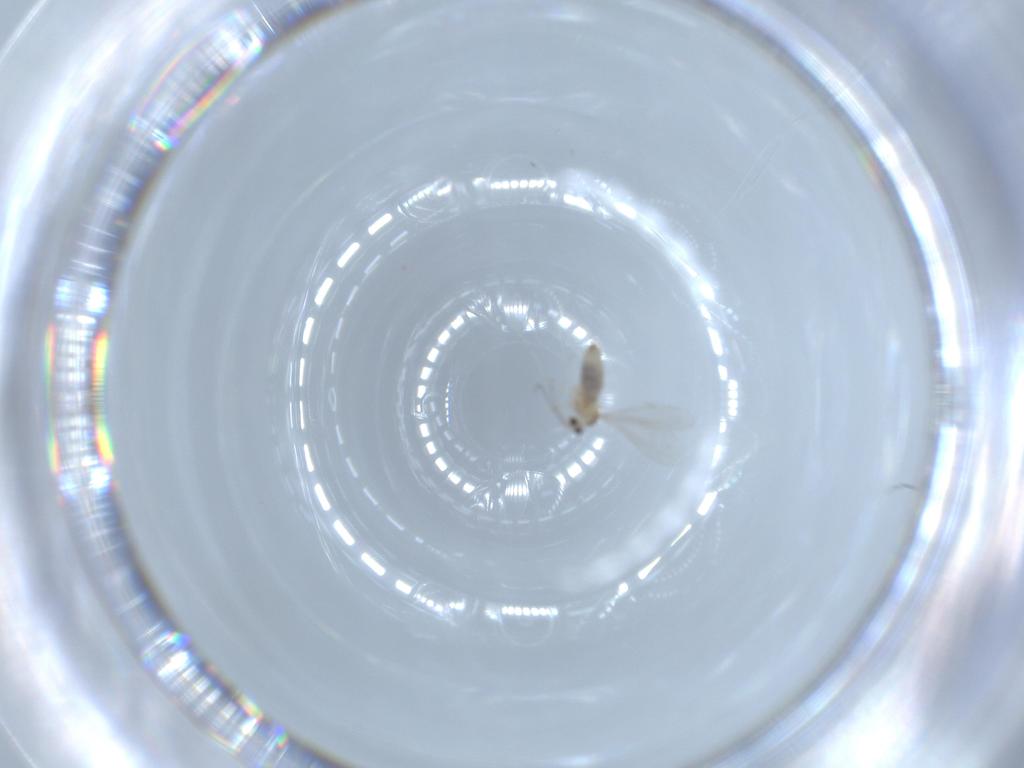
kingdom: Animalia
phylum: Arthropoda
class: Insecta
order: Diptera
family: Cecidomyiidae
